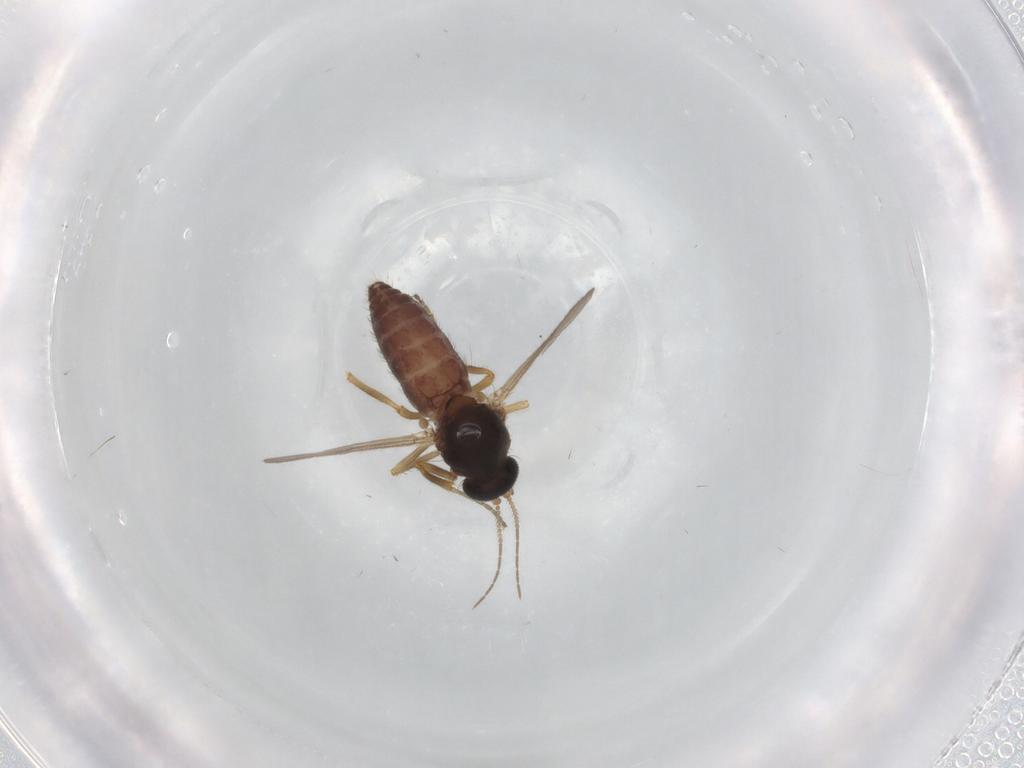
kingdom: Animalia
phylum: Arthropoda
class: Insecta
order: Diptera
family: Ceratopogonidae
